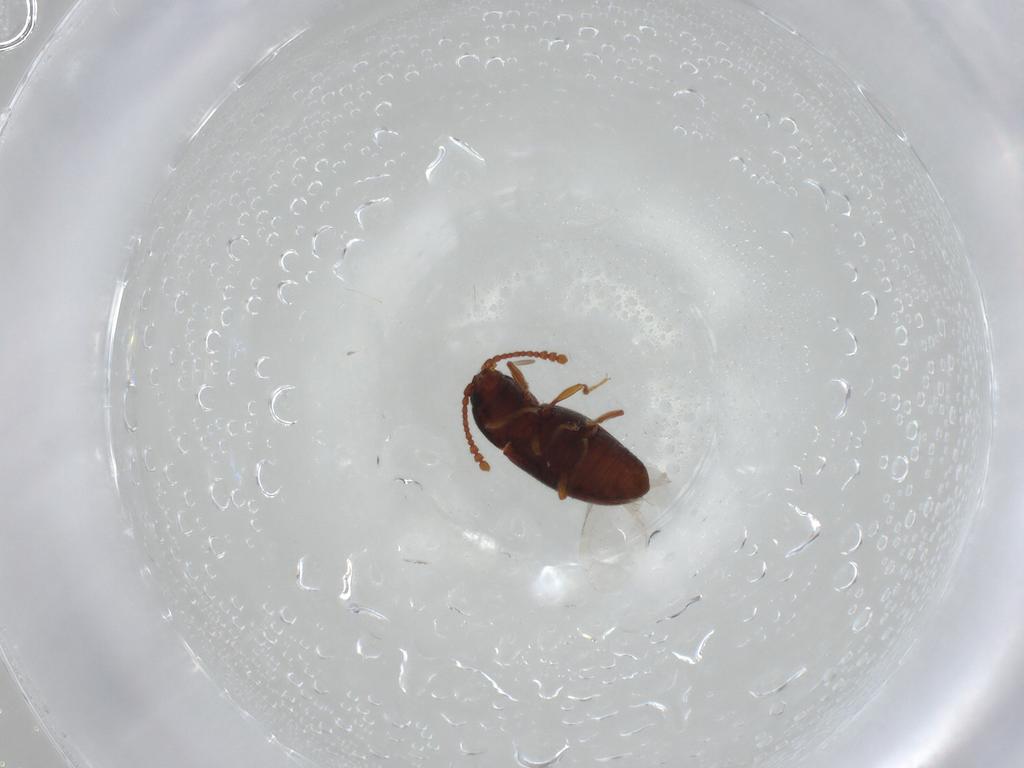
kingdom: Animalia
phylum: Arthropoda
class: Insecta
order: Coleoptera
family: Cryptophagidae
